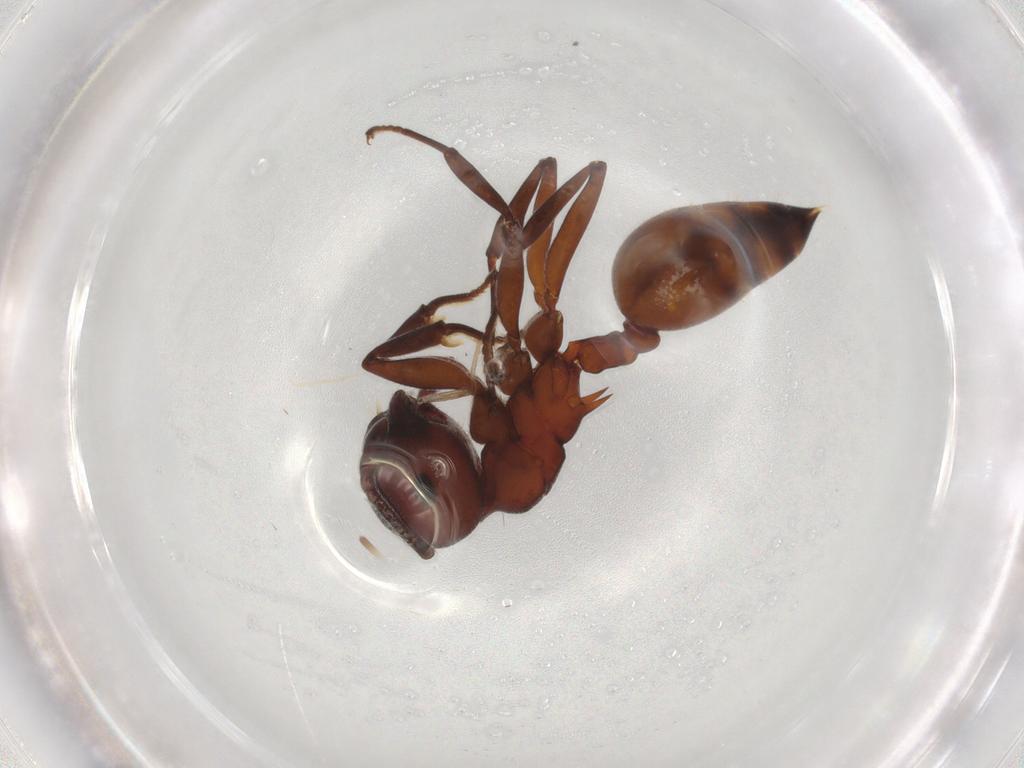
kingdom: Animalia
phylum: Arthropoda
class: Insecta
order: Hymenoptera
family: Formicidae
